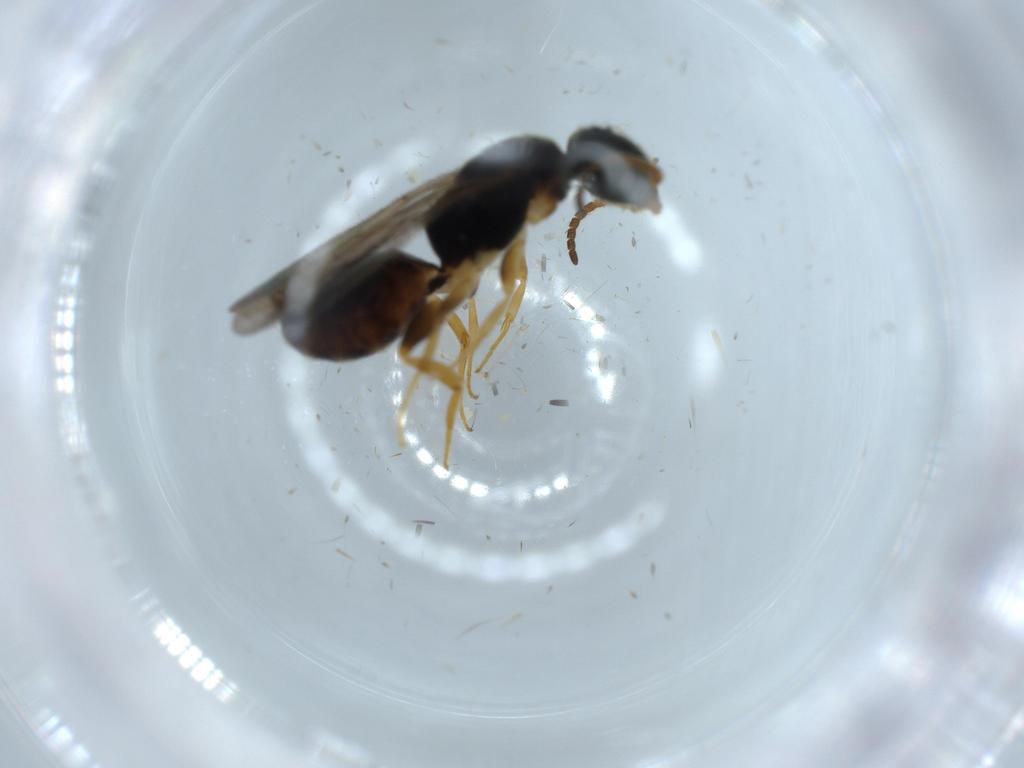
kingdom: Animalia
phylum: Arthropoda
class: Insecta
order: Hymenoptera
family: Bethylidae
